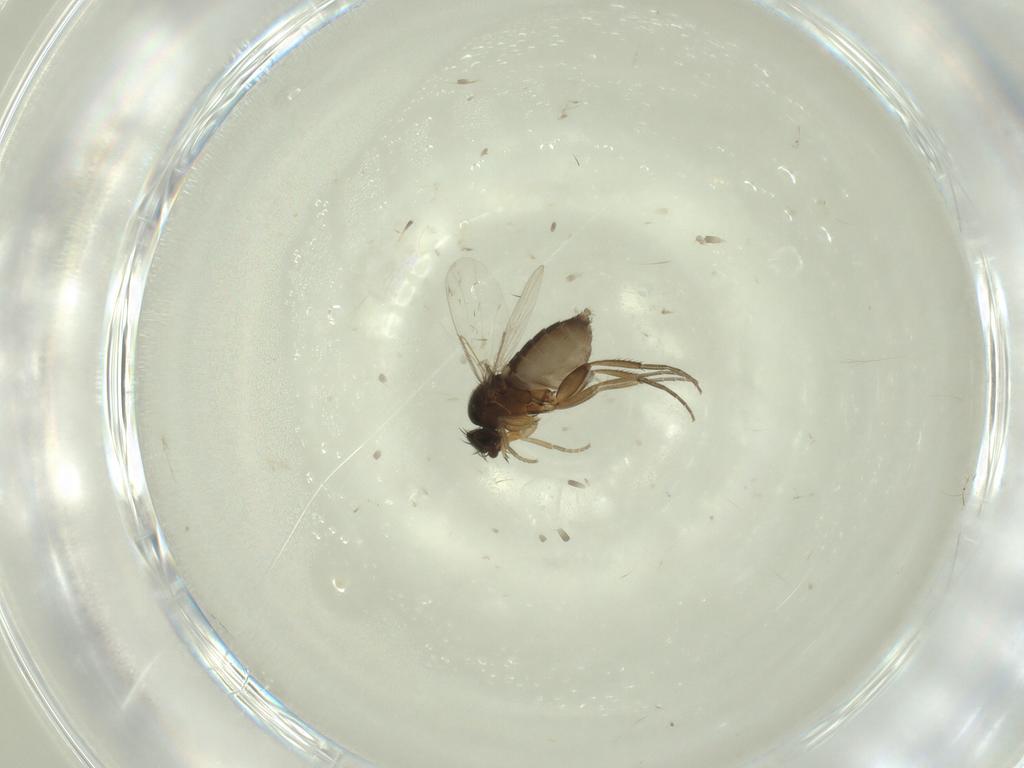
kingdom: Animalia
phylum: Arthropoda
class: Insecta
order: Diptera
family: Phoridae
